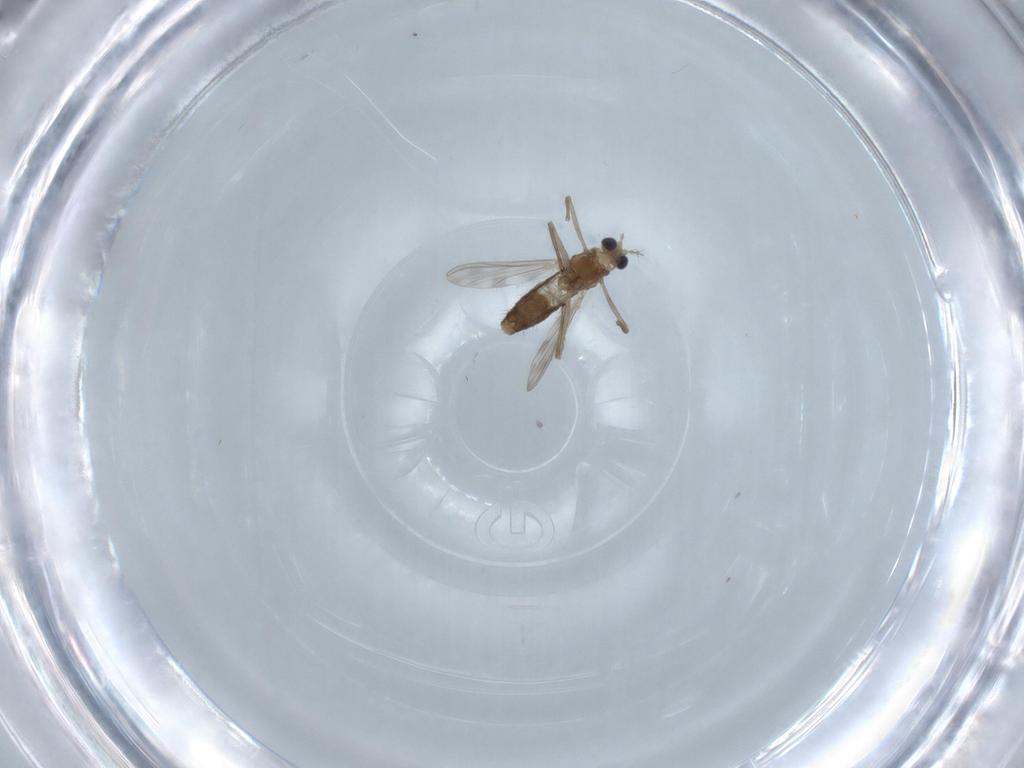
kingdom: Animalia
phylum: Arthropoda
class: Insecta
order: Diptera
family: Chironomidae
